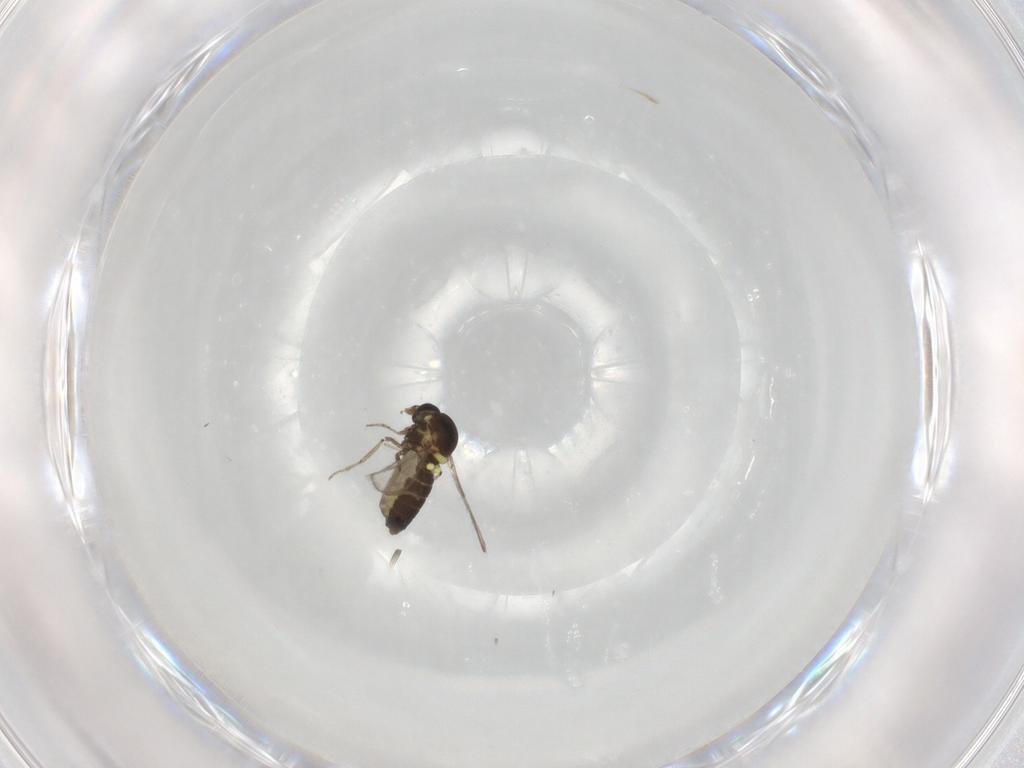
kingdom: Animalia
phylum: Arthropoda
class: Insecta
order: Diptera
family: Ceratopogonidae
